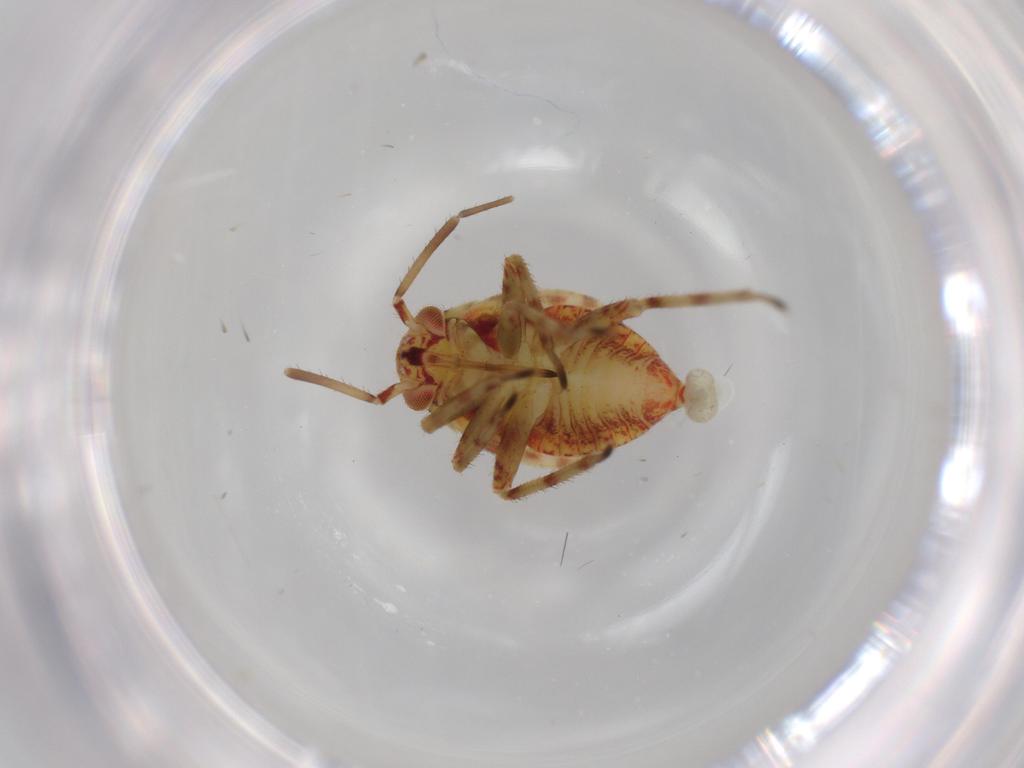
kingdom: Animalia
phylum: Arthropoda
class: Insecta
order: Hemiptera
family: Miridae
